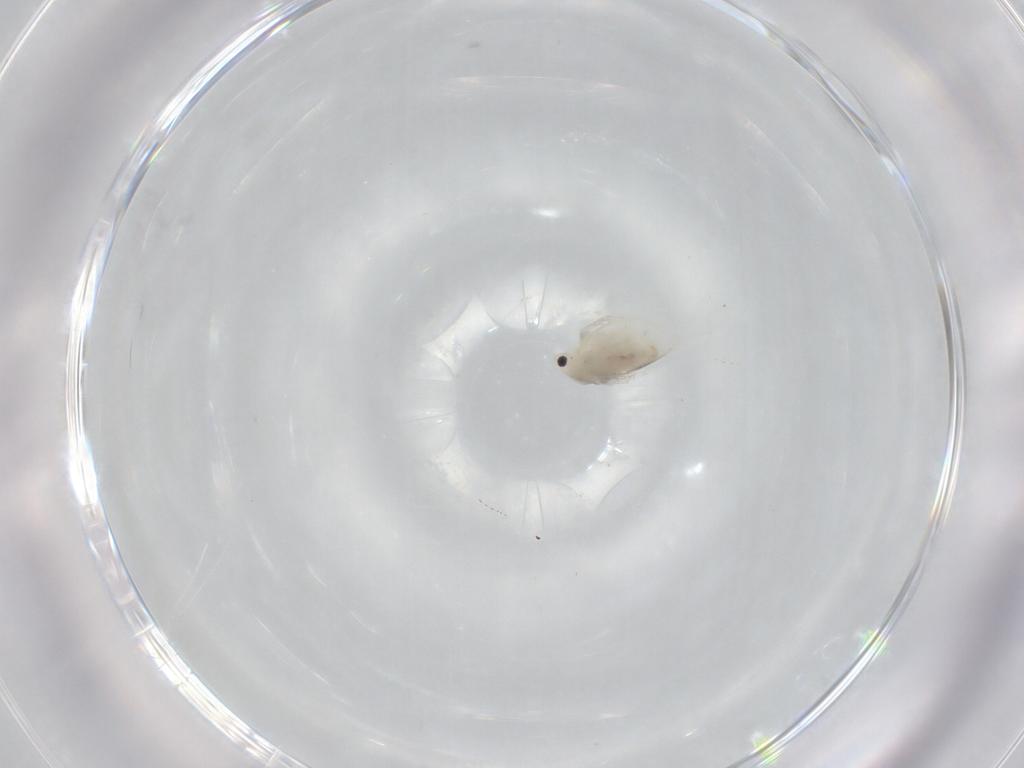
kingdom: Animalia
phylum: Arthropoda
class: Branchiopoda
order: Diplostraca
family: Daphniidae
